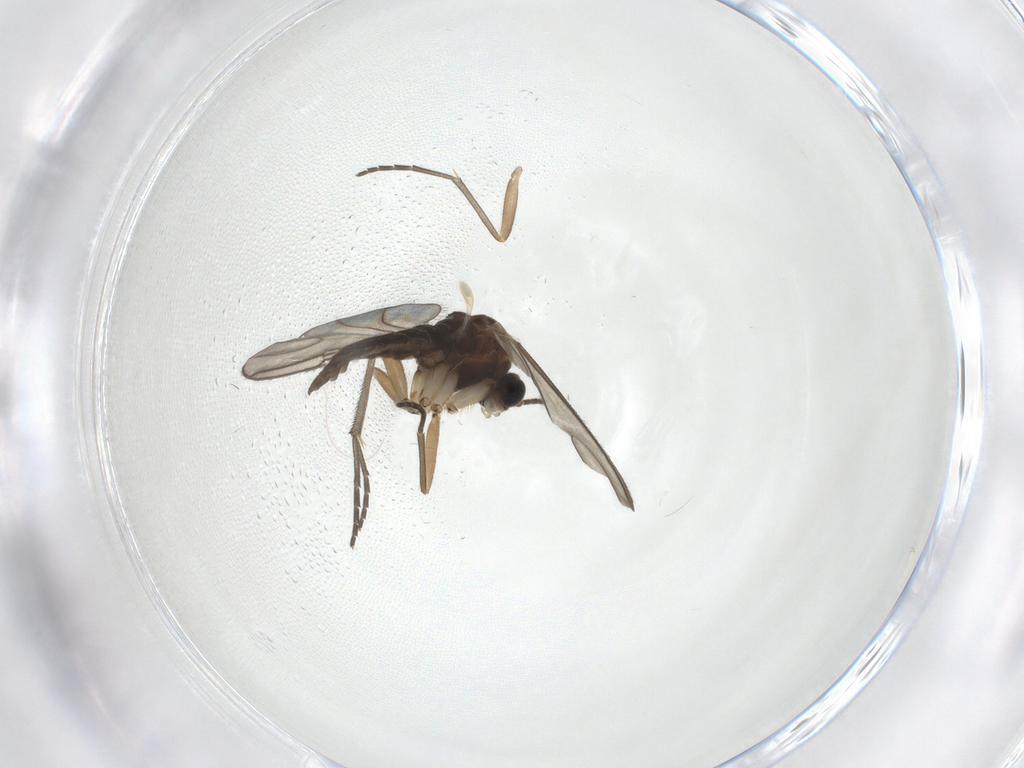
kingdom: Animalia
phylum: Arthropoda
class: Insecta
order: Diptera
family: Sciaridae
